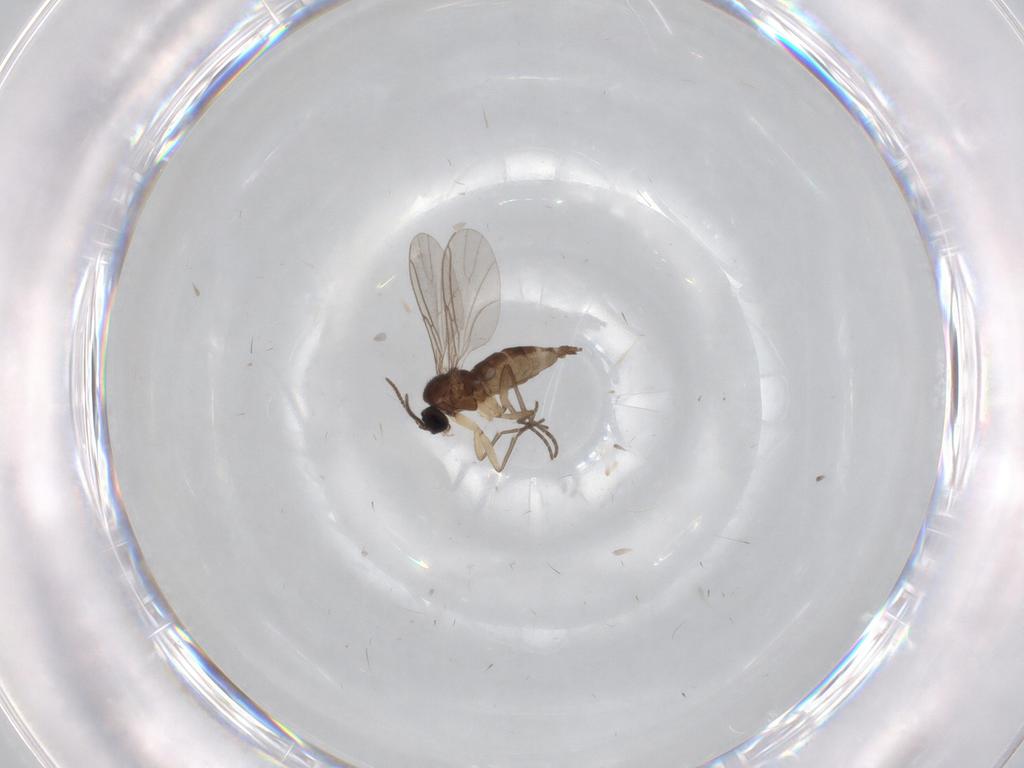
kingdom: Animalia
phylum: Arthropoda
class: Insecta
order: Diptera
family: Sciaridae
